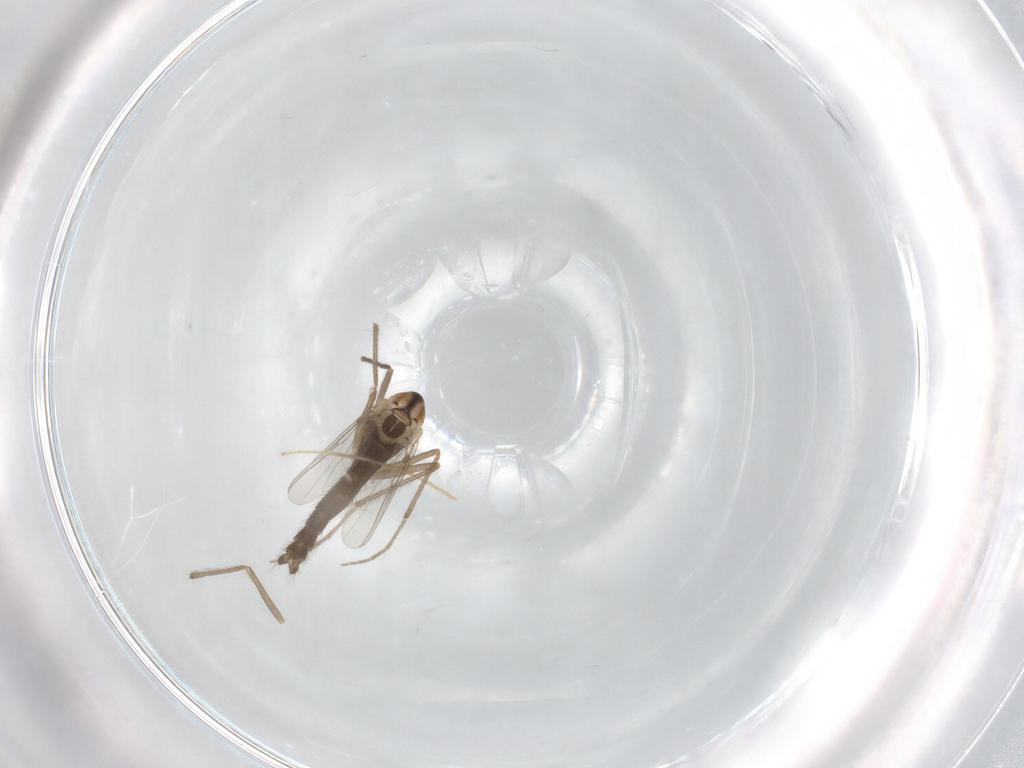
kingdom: Animalia
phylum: Arthropoda
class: Insecta
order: Diptera
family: Chironomidae
